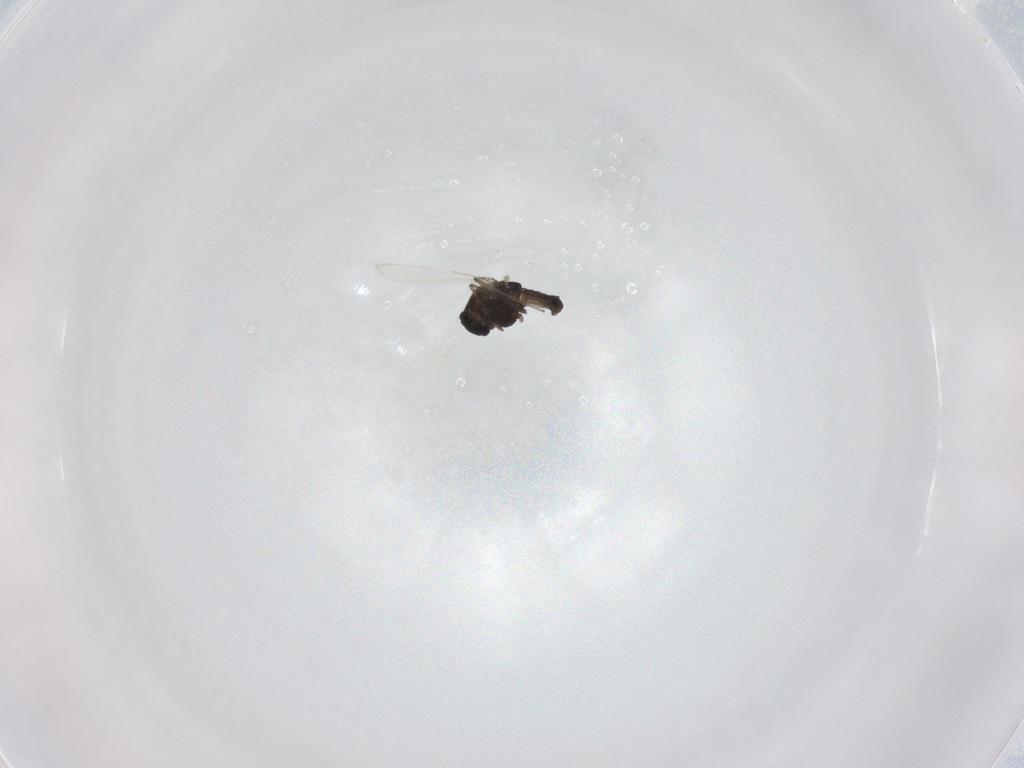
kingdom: Animalia
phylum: Arthropoda
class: Insecta
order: Diptera
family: Chironomidae
